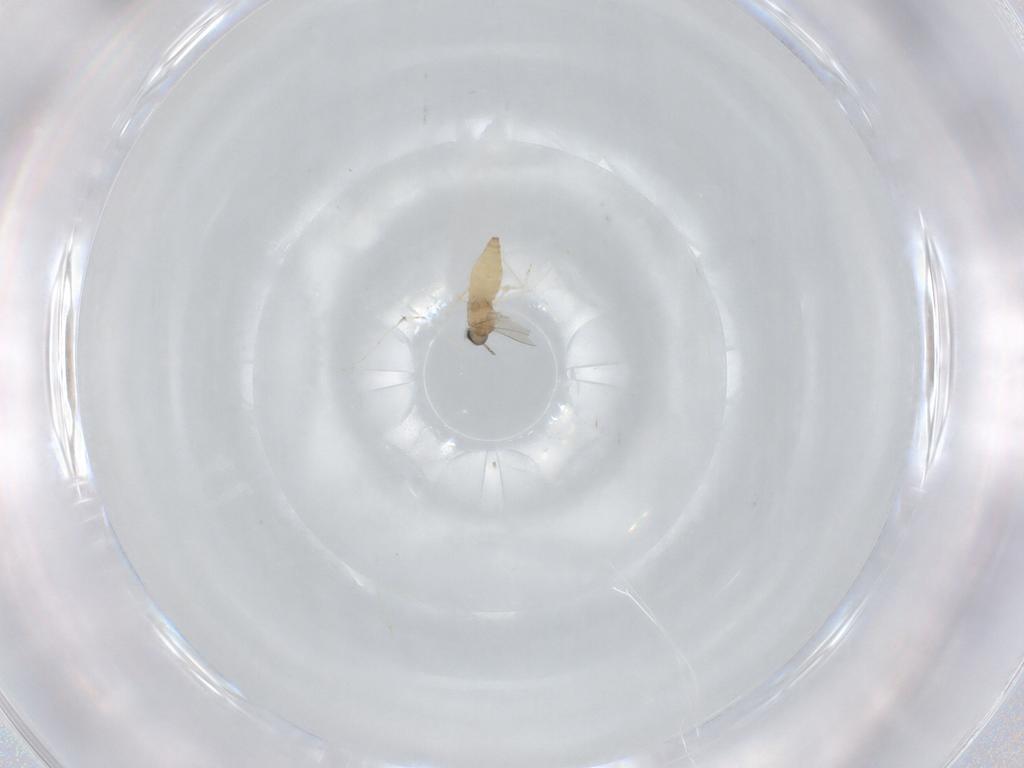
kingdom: Animalia
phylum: Arthropoda
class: Insecta
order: Diptera
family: Cecidomyiidae
